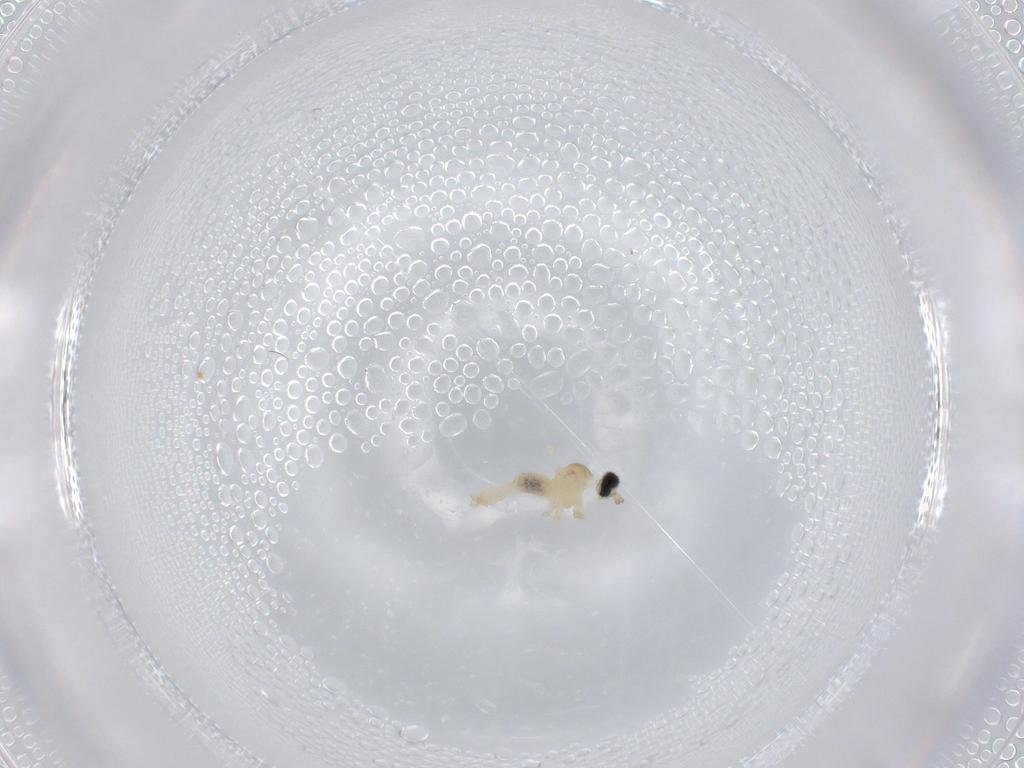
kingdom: Animalia
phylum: Arthropoda
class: Insecta
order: Diptera
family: Cecidomyiidae
